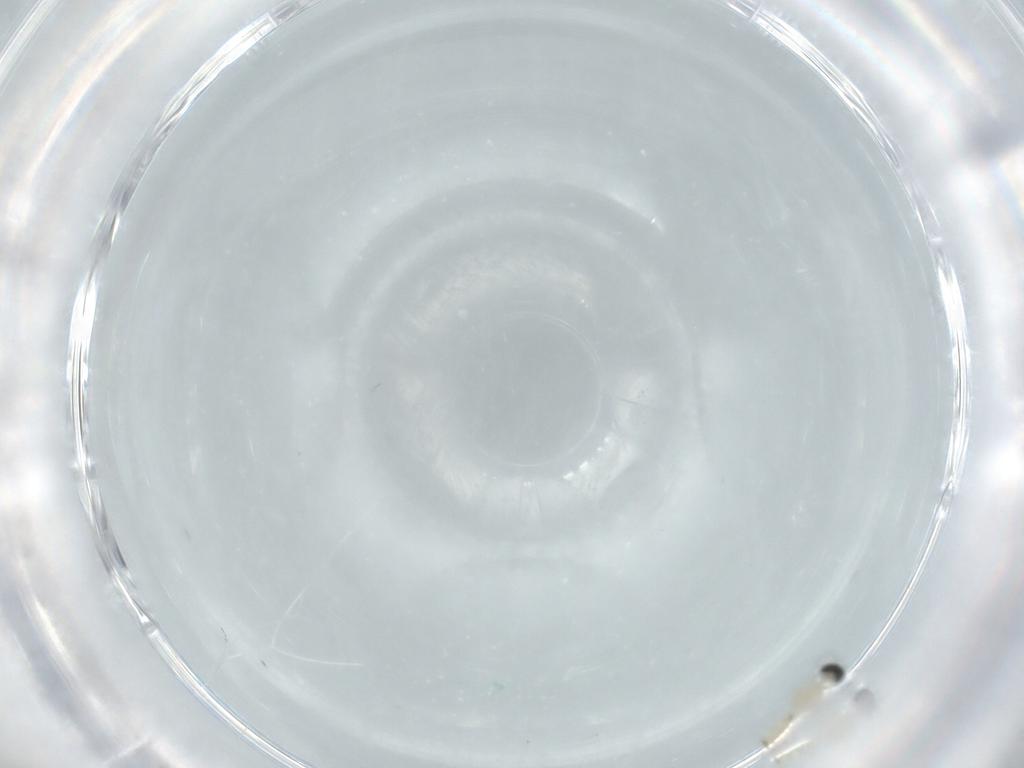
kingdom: Animalia
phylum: Arthropoda
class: Insecta
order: Diptera
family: Cecidomyiidae
